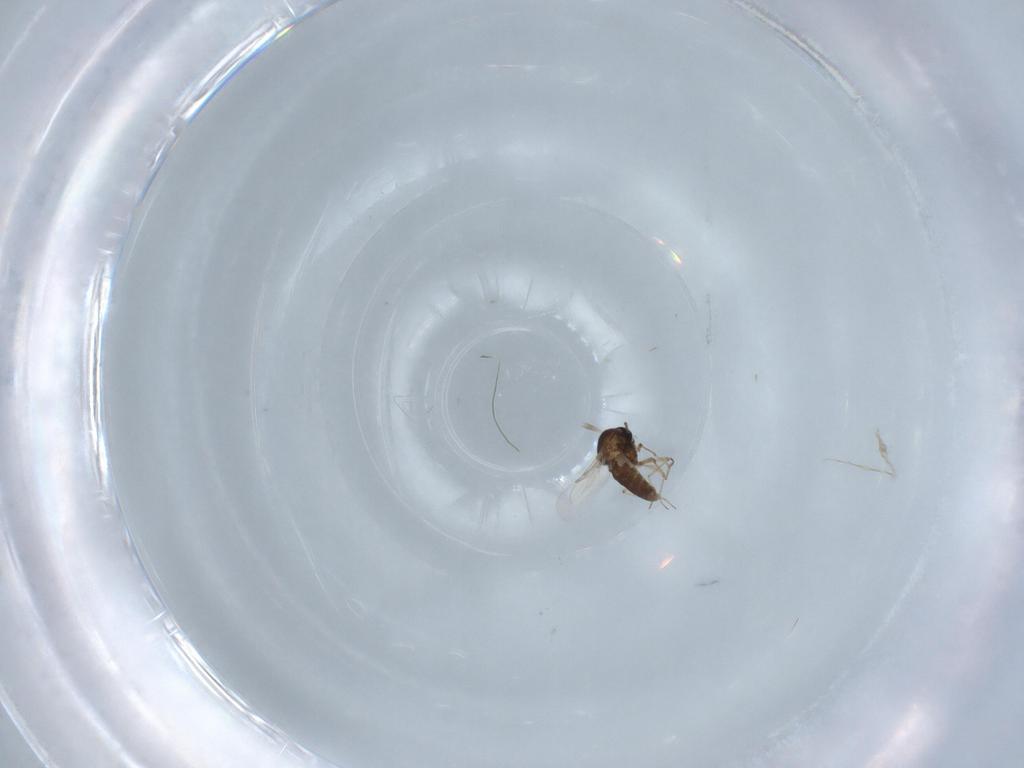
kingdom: Animalia
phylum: Arthropoda
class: Insecta
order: Diptera
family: Ceratopogonidae
